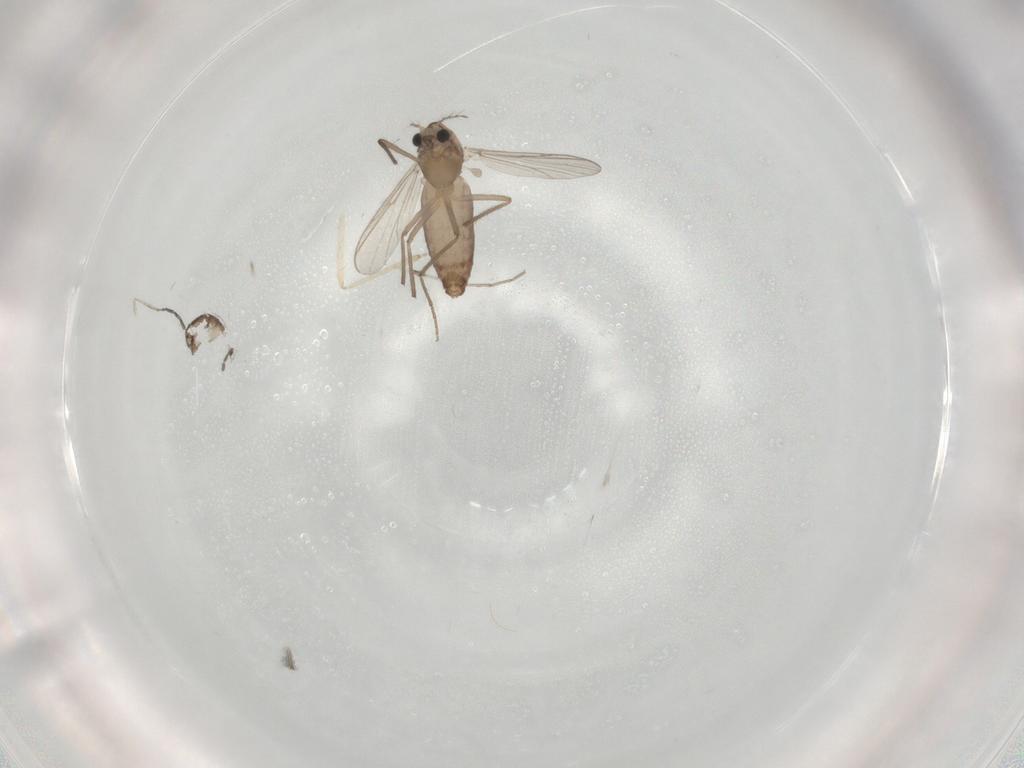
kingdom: Animalia
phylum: Arthropoda
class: Insecta
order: Diptera
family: Chironomidae
